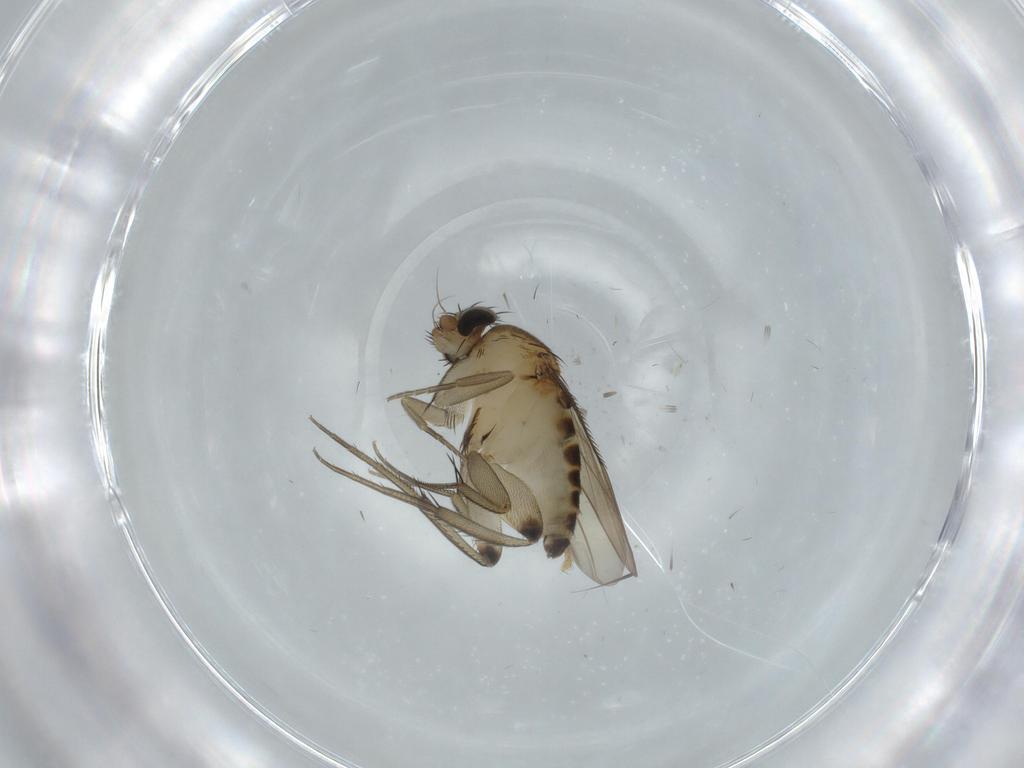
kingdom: Animalia
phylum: Arthropoda
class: Insecta
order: Diptera
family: Phoridae
